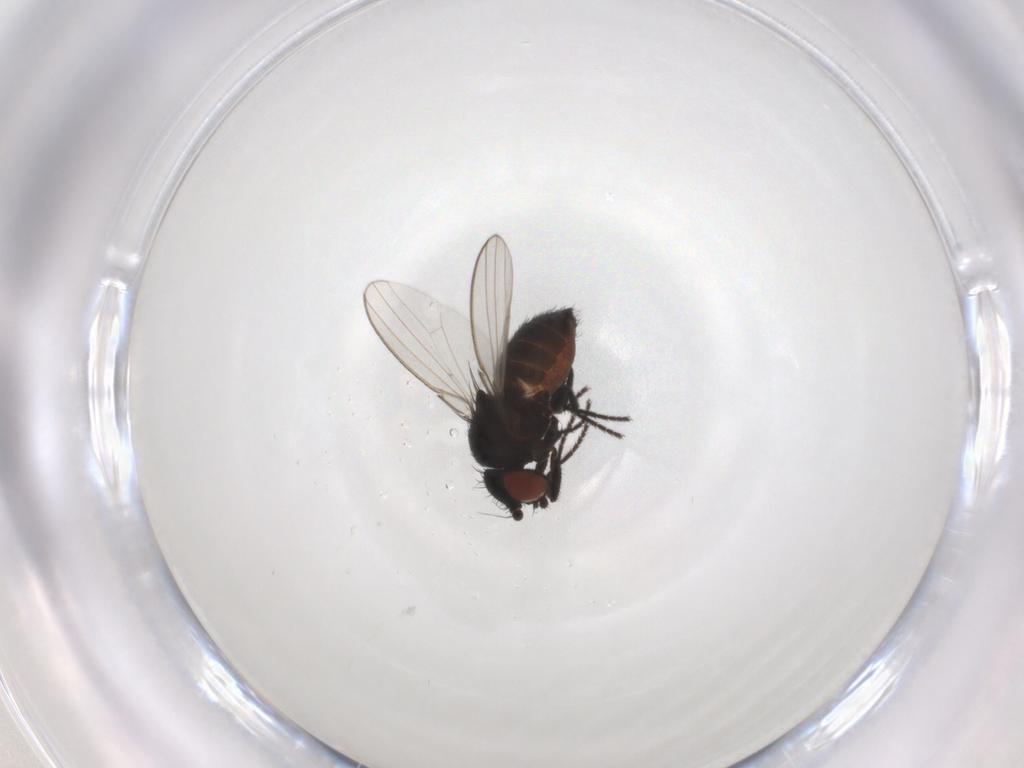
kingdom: Animalia
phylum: Arthropoda
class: Insecta
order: Diptera
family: Milichiidae
